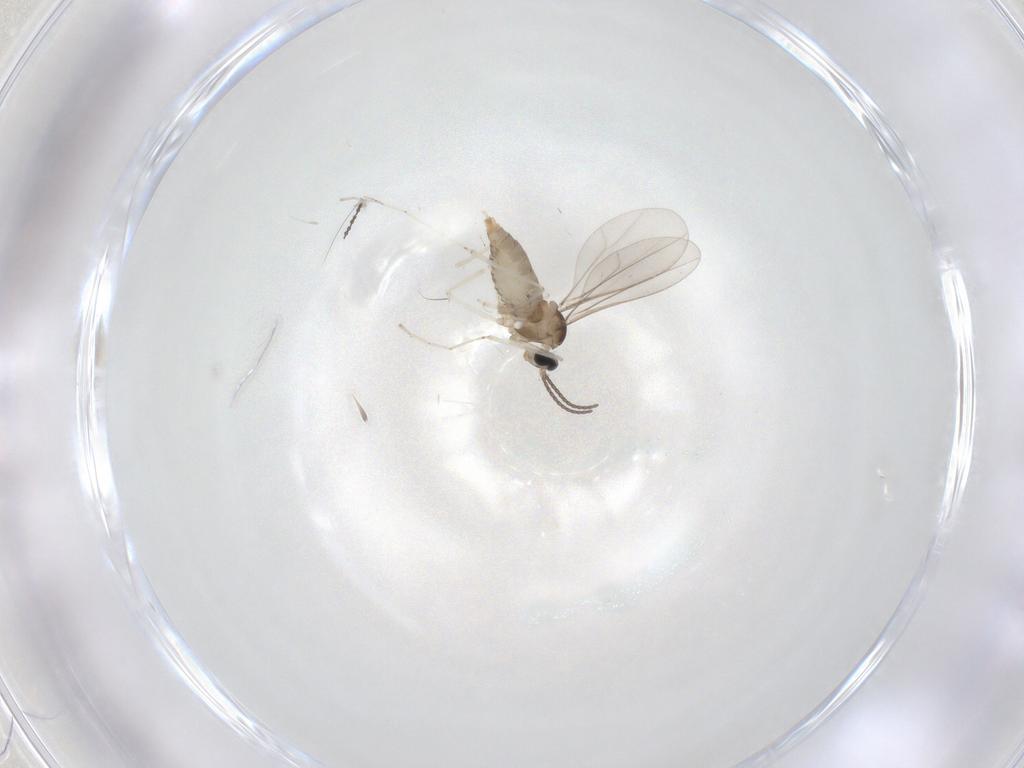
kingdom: Animalia
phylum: Arthropoda
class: Insecta
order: Diptera
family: Cecidomyiidae
